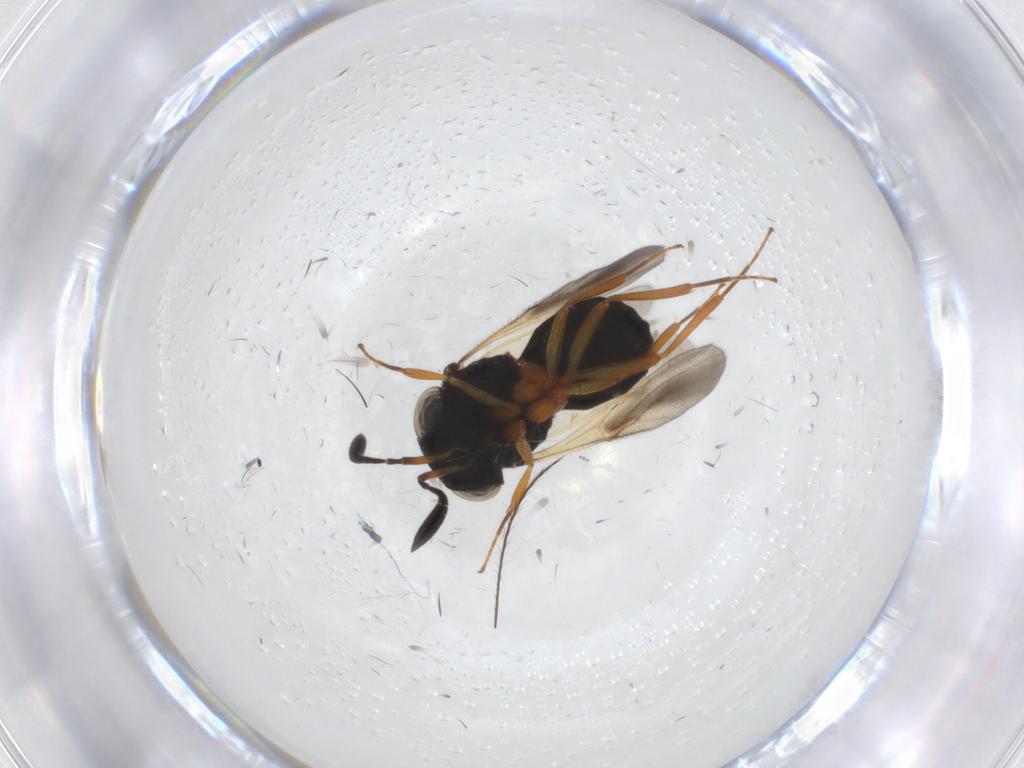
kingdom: Animalia
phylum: Arthropoda
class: Insecta
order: Hymenoptera
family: Scelionidae
